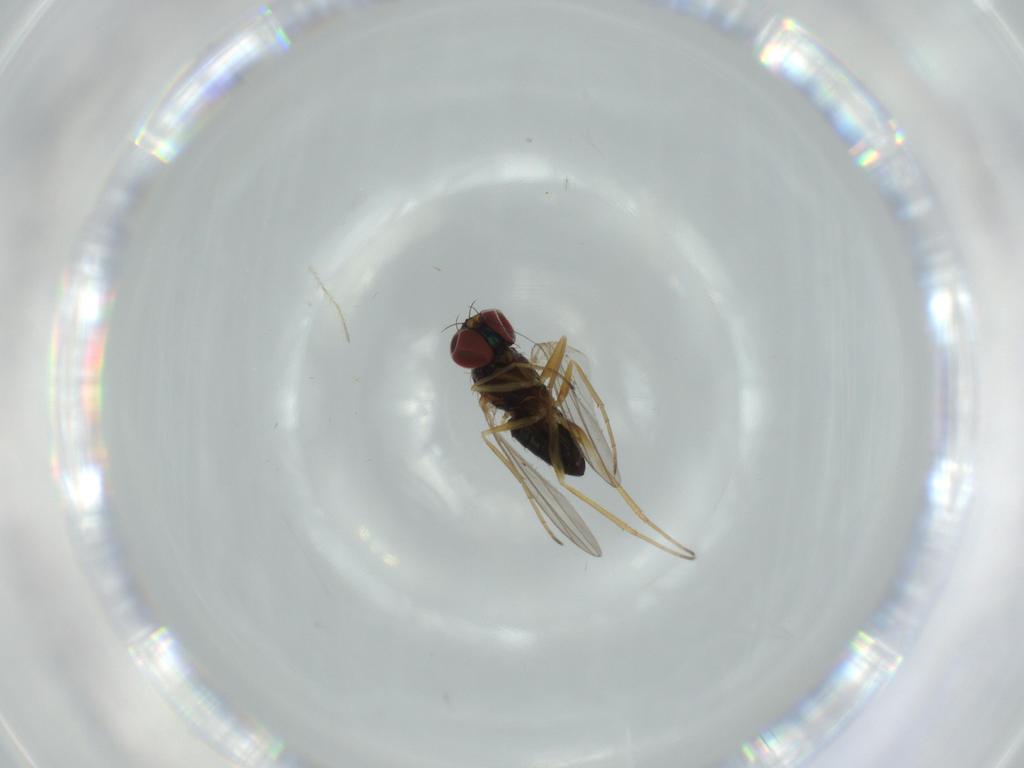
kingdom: Animalia
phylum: Arthropoda
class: Insecta
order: Diptera
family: Dolichopodidae
